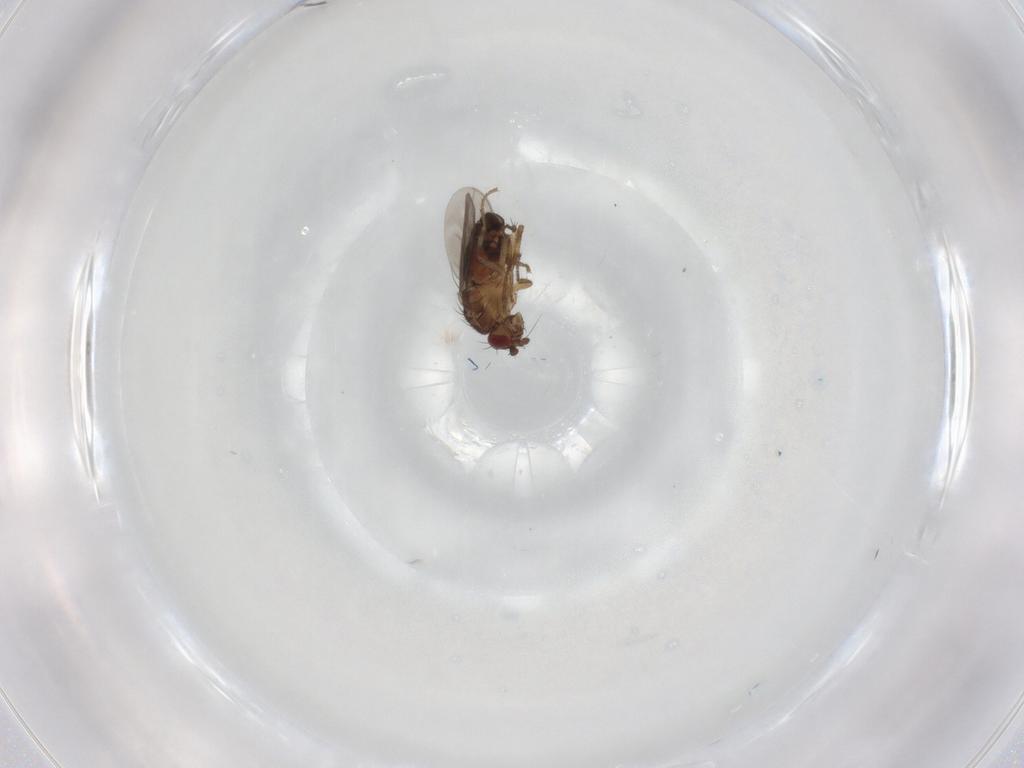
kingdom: Animalia
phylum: Arthropoda
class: Insecta
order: Diptera
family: Sphaeroceridae
